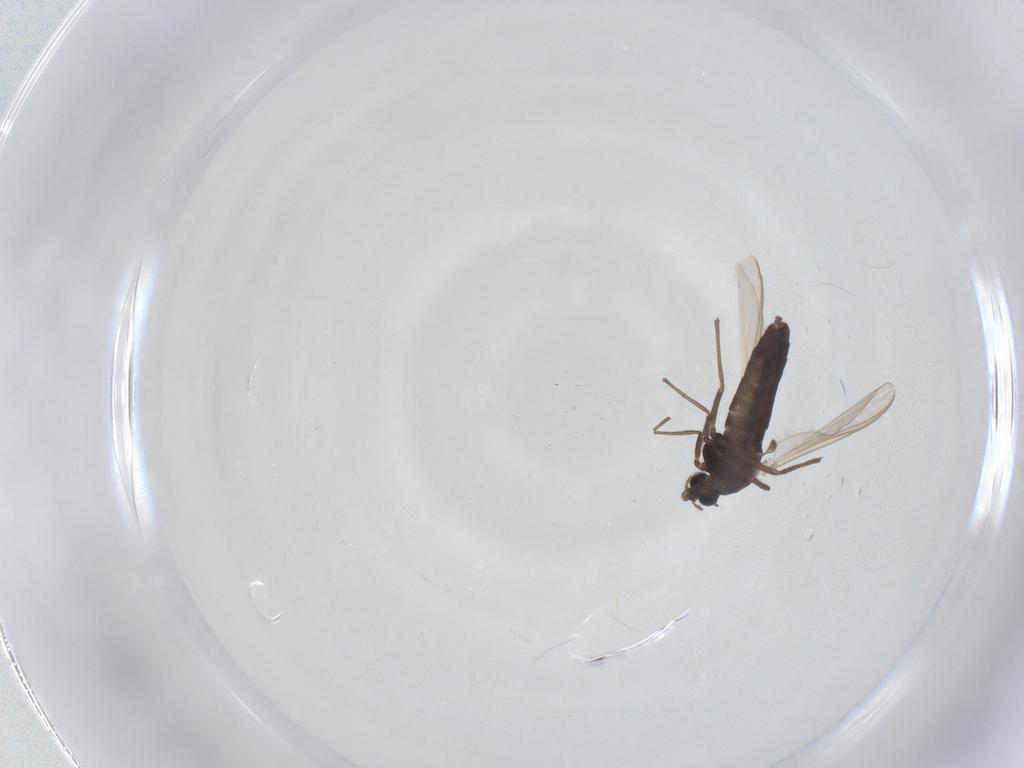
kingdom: Animalia
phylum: Arthropoda
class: Insecta
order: Diptera
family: Chironomidae
